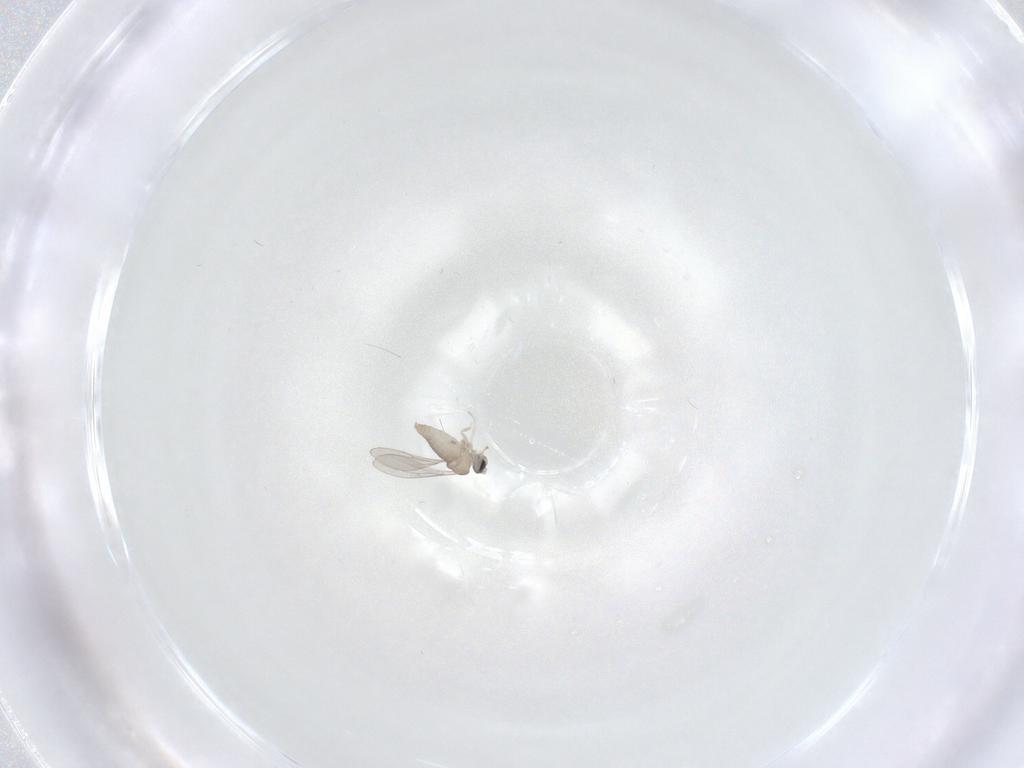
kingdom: Animalia
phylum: Arthropoda
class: Insecta
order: Diptera
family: Cecidomyiidae
